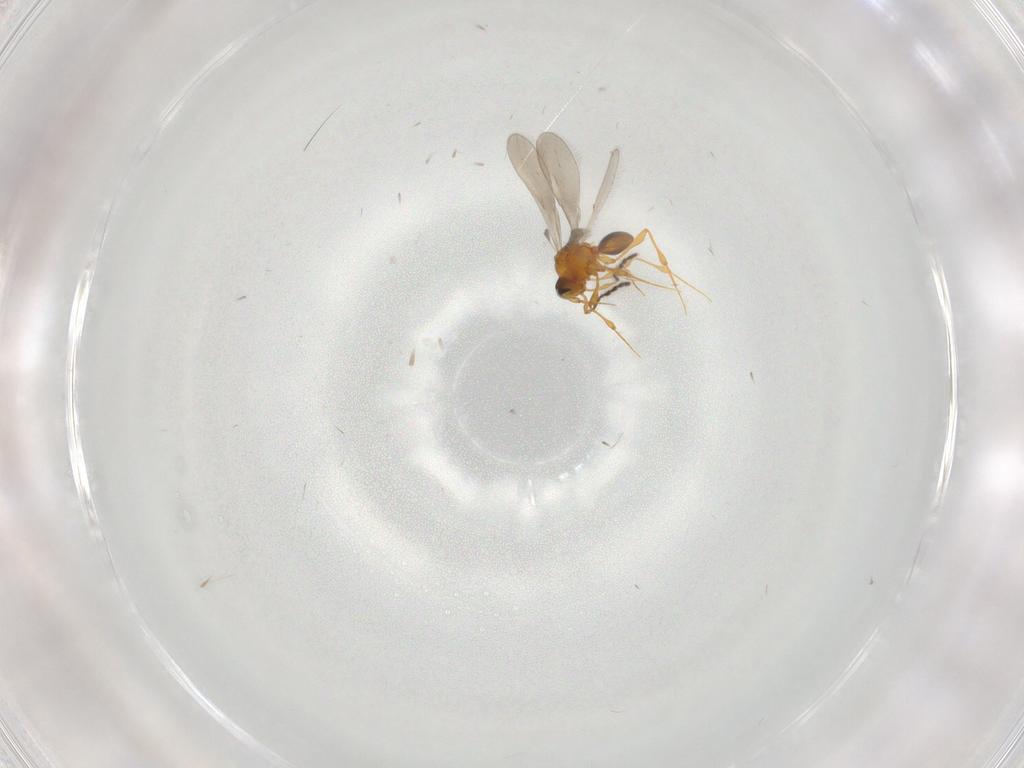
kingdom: Animalia
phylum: Arthropoda
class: Insecta
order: Hymenoptera
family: Platygastridae
